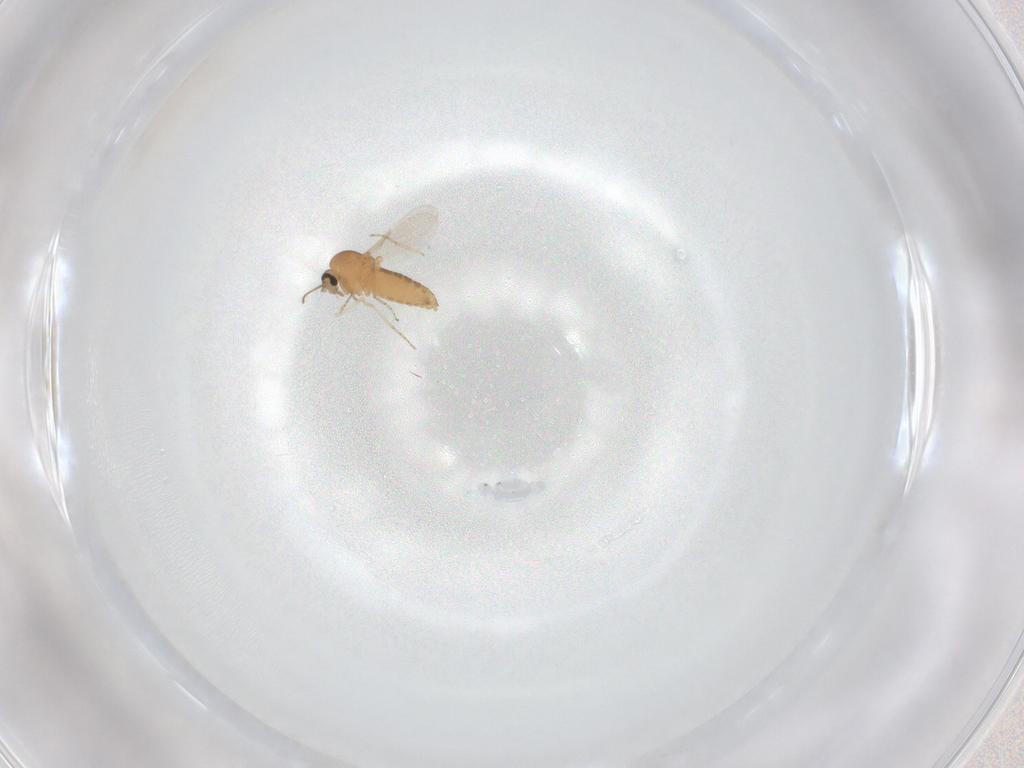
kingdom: Animalia
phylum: Arthropoda
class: Insecta
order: Diptera
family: Ceratopogonidae
